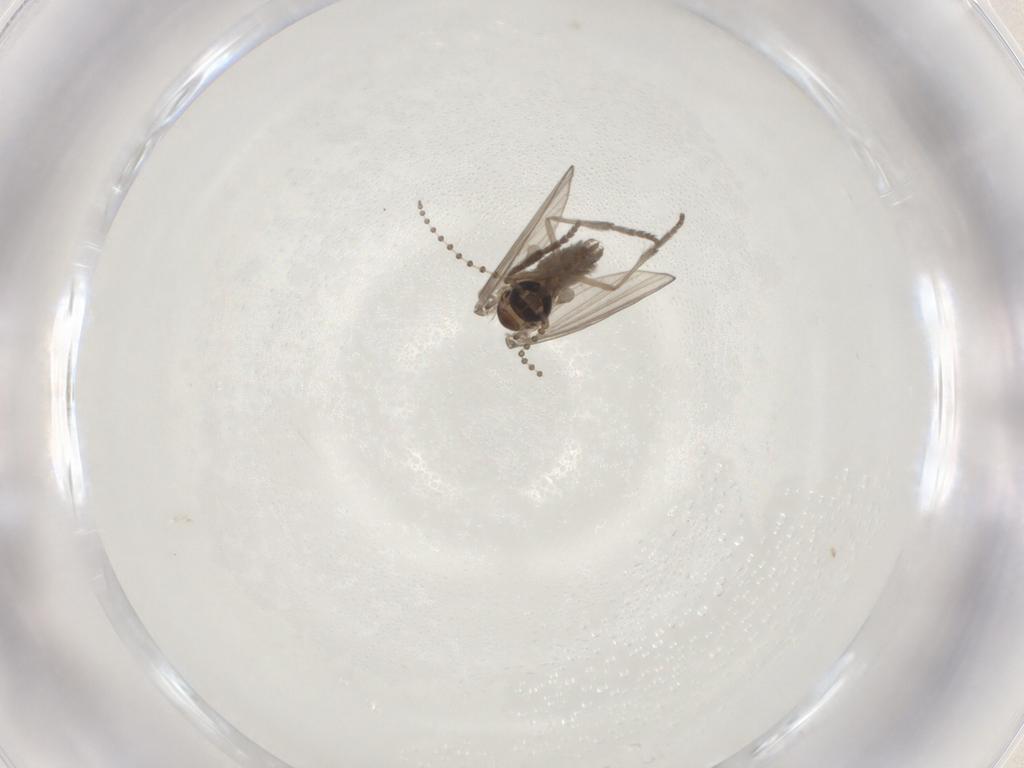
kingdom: Animalia
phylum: Arthropoda
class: Insecta
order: Diptera
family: Psychodidae
